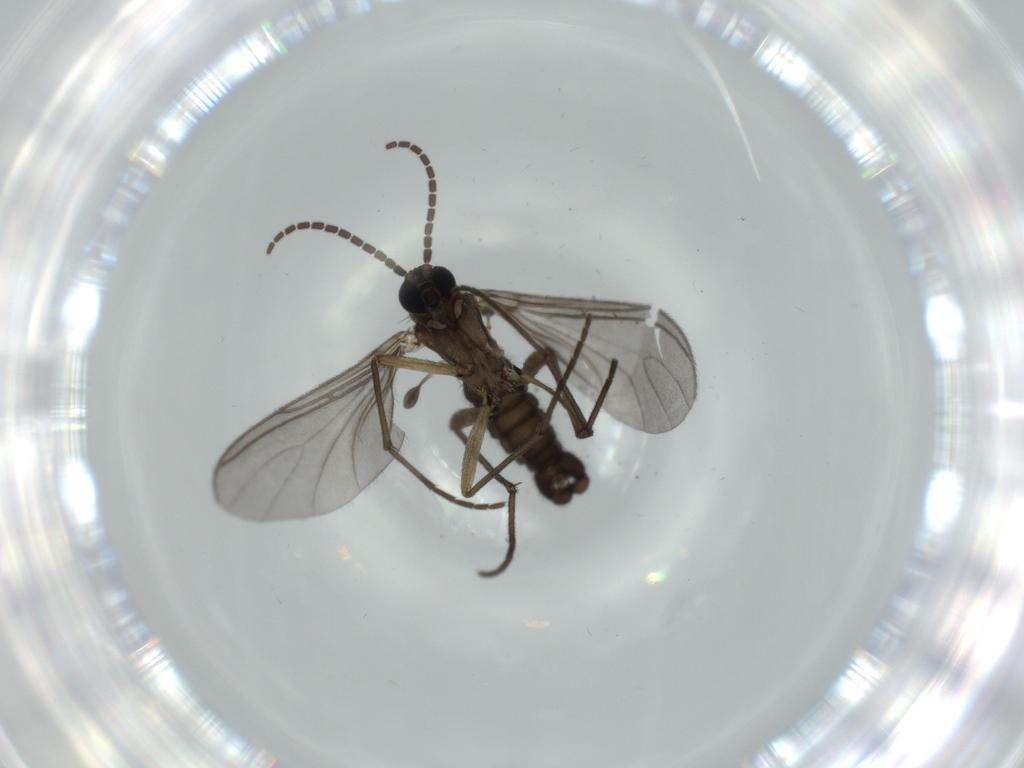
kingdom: Animalia
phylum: Arthropoda
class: Insecta
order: Diptera
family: Sciaridae
